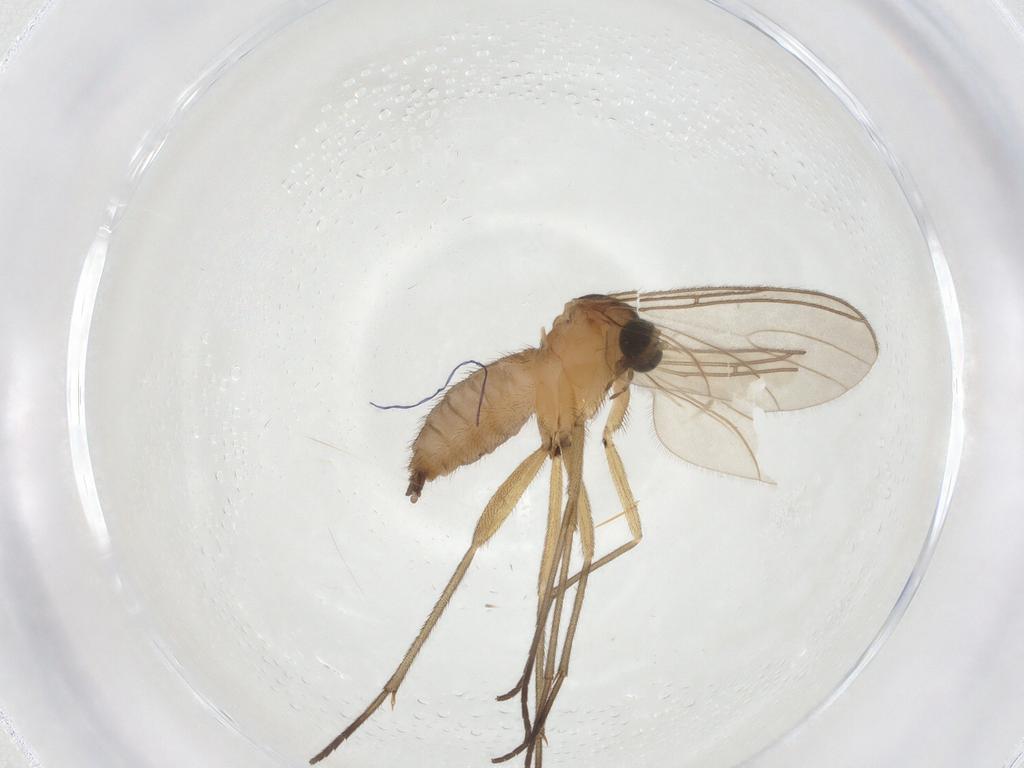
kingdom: Animalia
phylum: Arthropoda
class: Insecta
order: Diptera
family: Sciaridae
